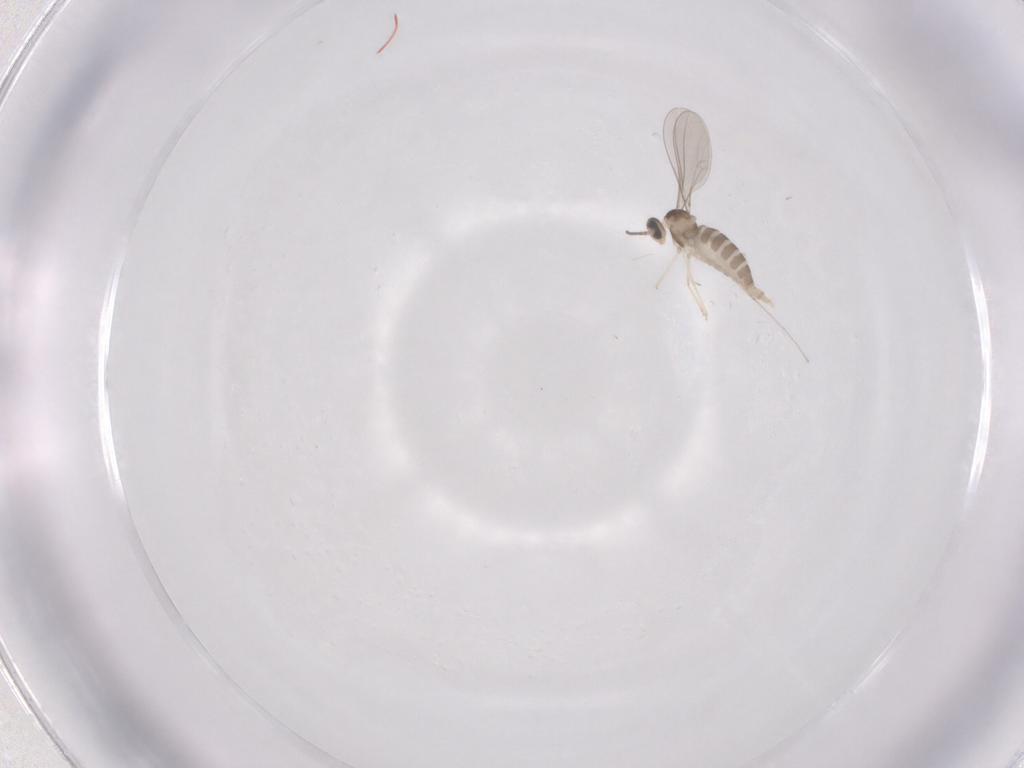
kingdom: Animalia
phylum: Arthropoda
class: Insecta
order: Diptera
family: Cecidomyiidae
